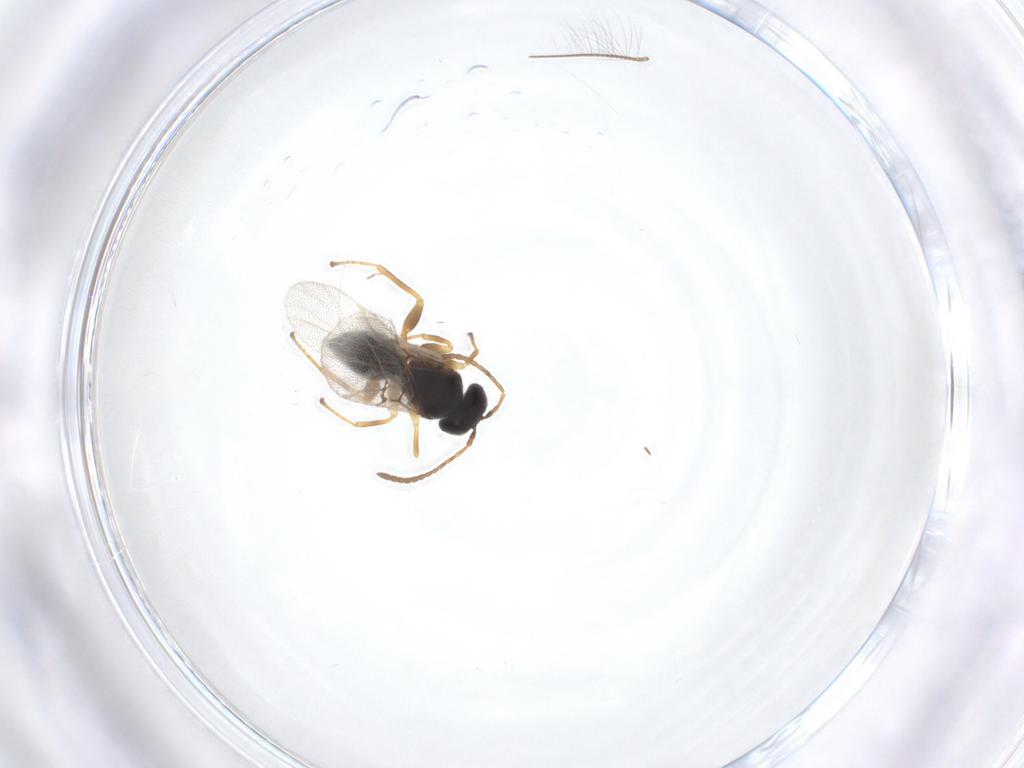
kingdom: Animalia
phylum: Arthropoda
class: Insecta
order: Hymenoptera
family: Cynipidae
